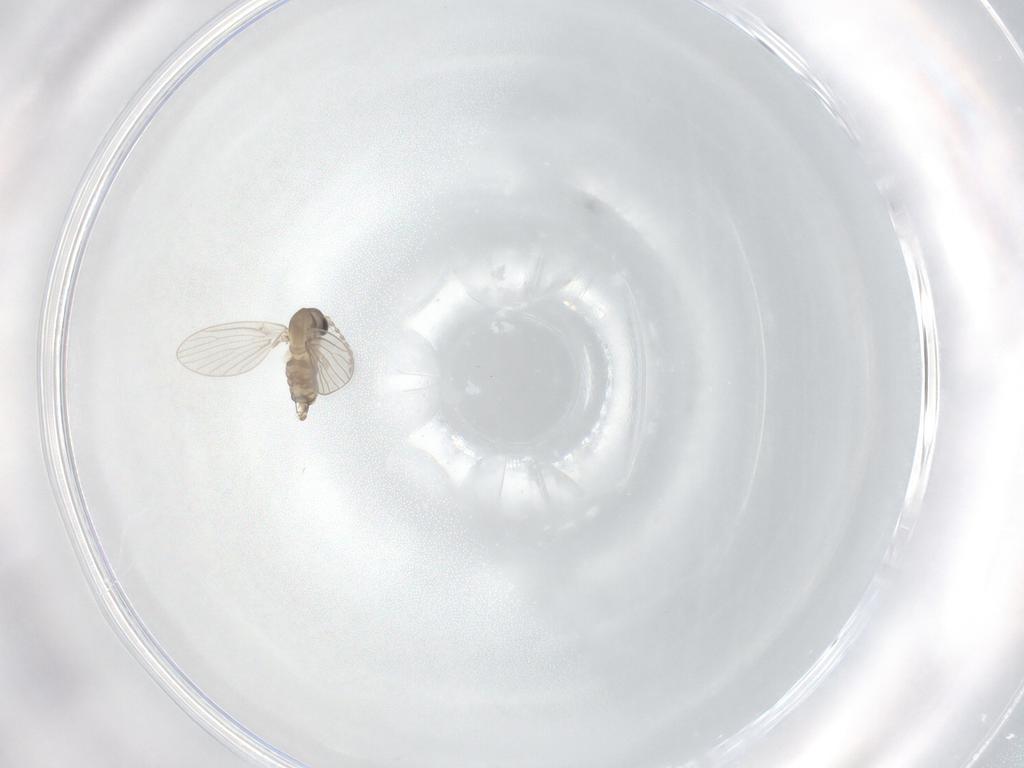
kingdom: Animalia
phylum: Arthropoda
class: Insecta
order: Diptera
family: Psychodidae
